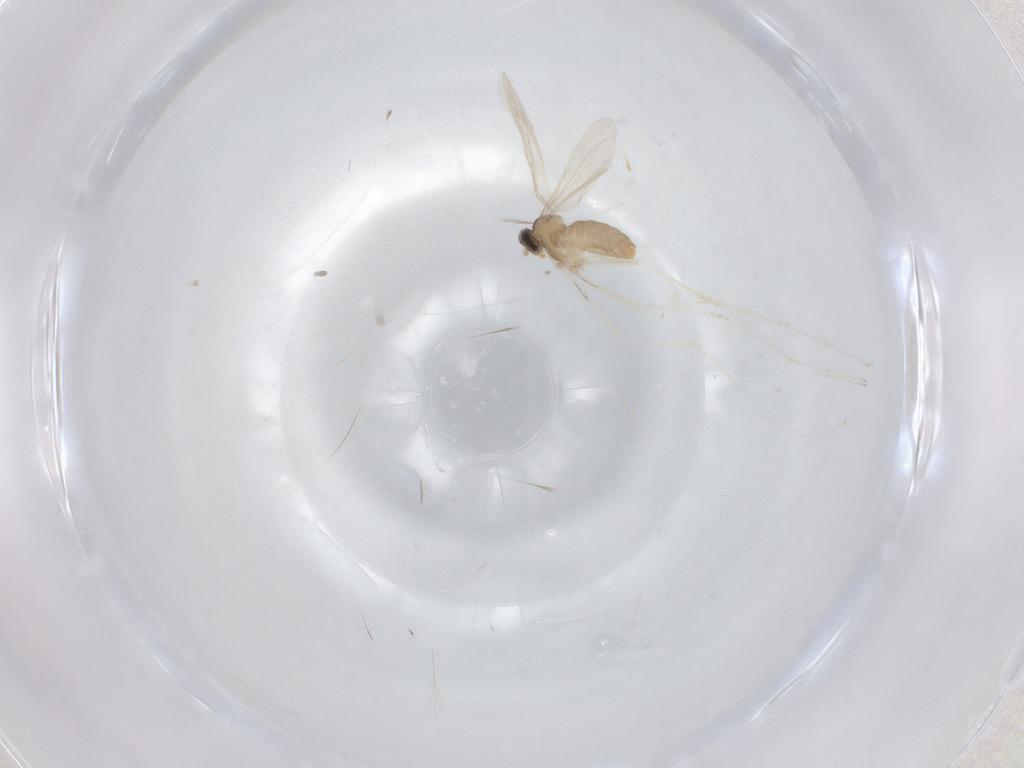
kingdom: Animalia
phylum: Arthropoda
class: Insecta
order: Diptera
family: Cecidomyiidae
